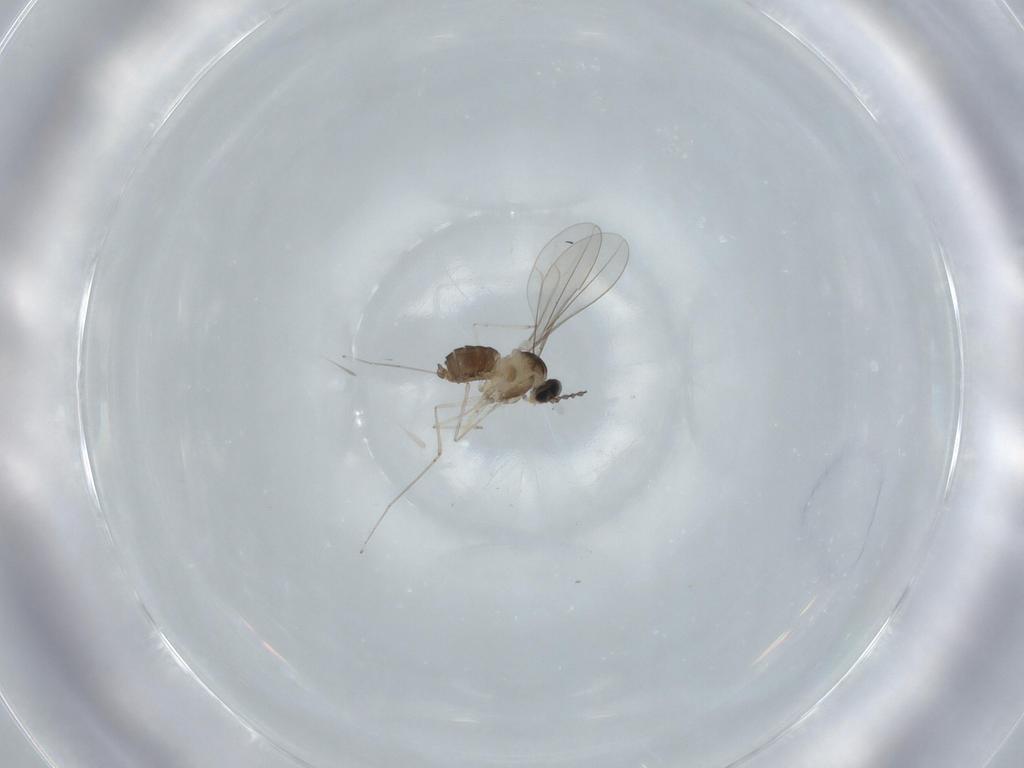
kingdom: Animalia
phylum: Arthropoda
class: Insecta
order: Diptera
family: Cecidomyiidae
